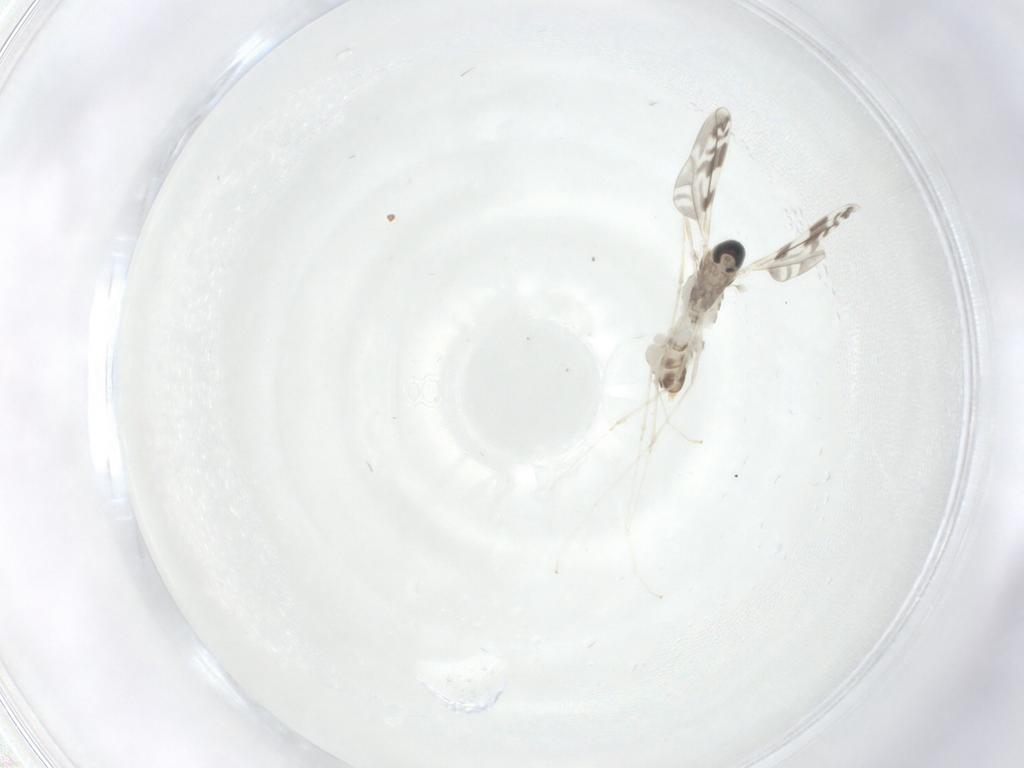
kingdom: Animalia
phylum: Arthropoda
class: Insecta
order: Diptera
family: Cecidomyiidae
